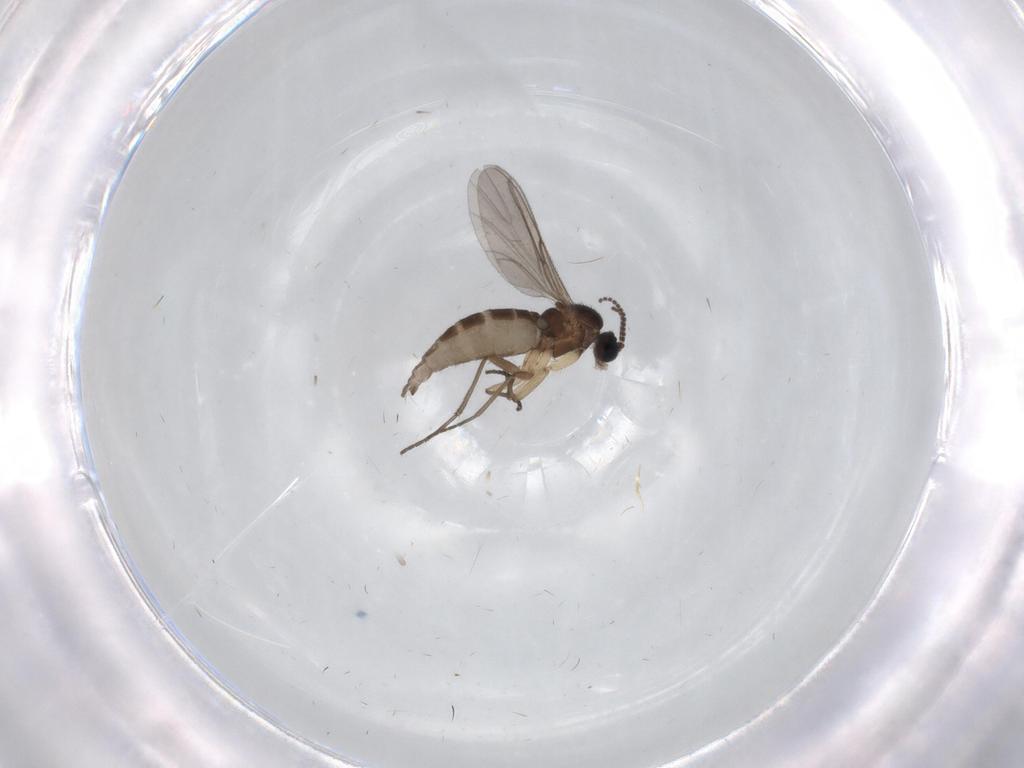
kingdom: Animalia
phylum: Arthropoda
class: Insecta
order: Diptera
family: Sciaridae
